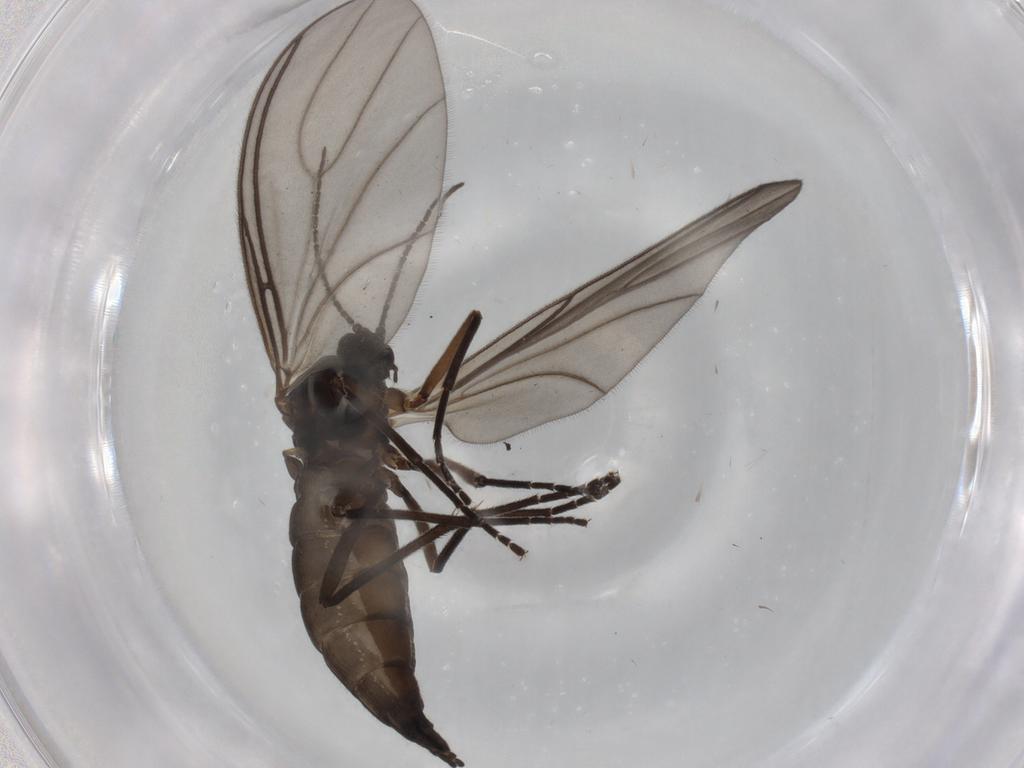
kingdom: Animalia
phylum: Arthropoda
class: Insecta
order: Diptera
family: Sciaridae
